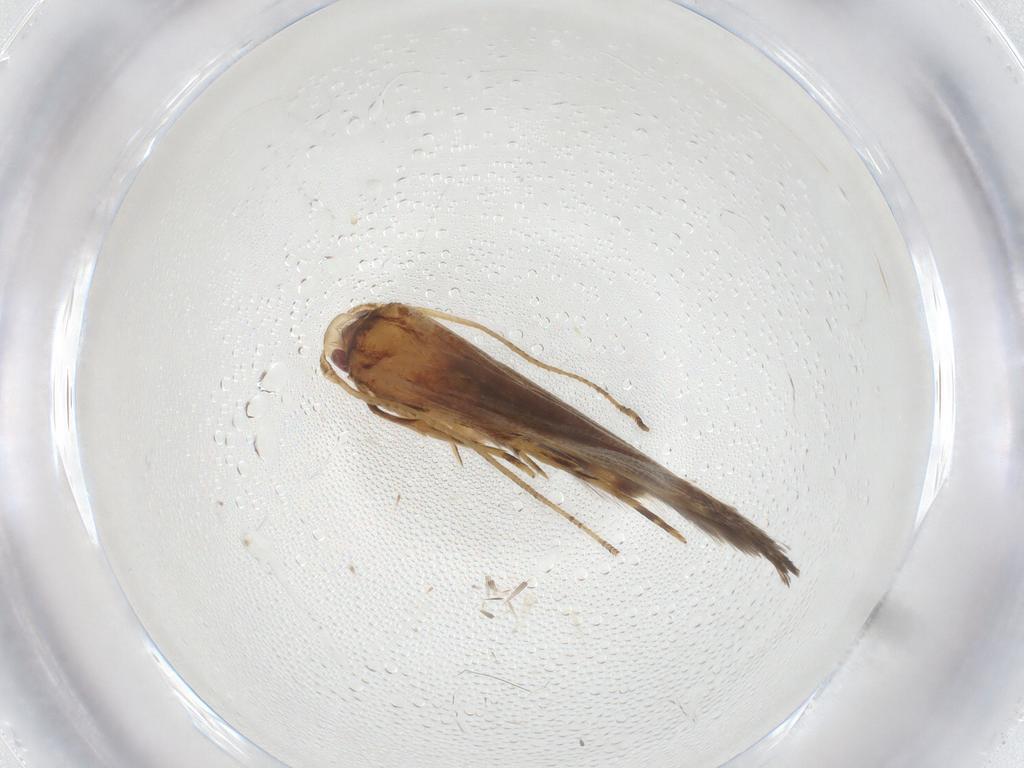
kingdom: Animalia
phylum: Arthropoda
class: Insecta
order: Lepidoptera
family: Cosmopterigidae
